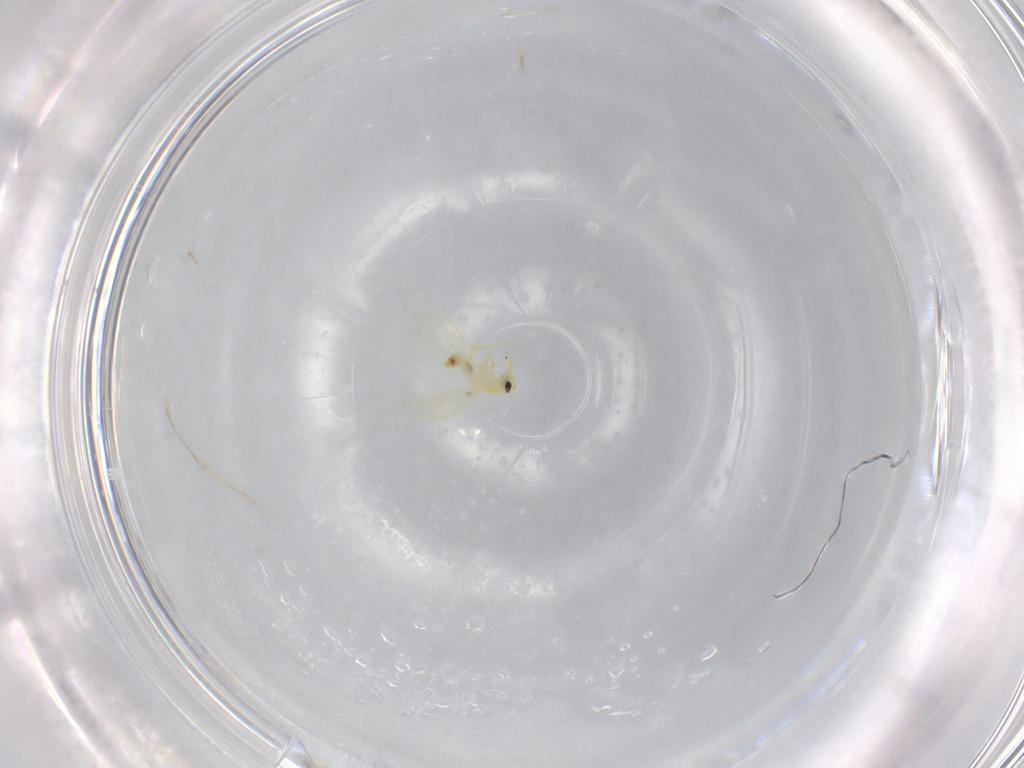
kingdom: Animalia
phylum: Arthropoda
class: Insecta
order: Hemiptera
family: Aleyrodidae
